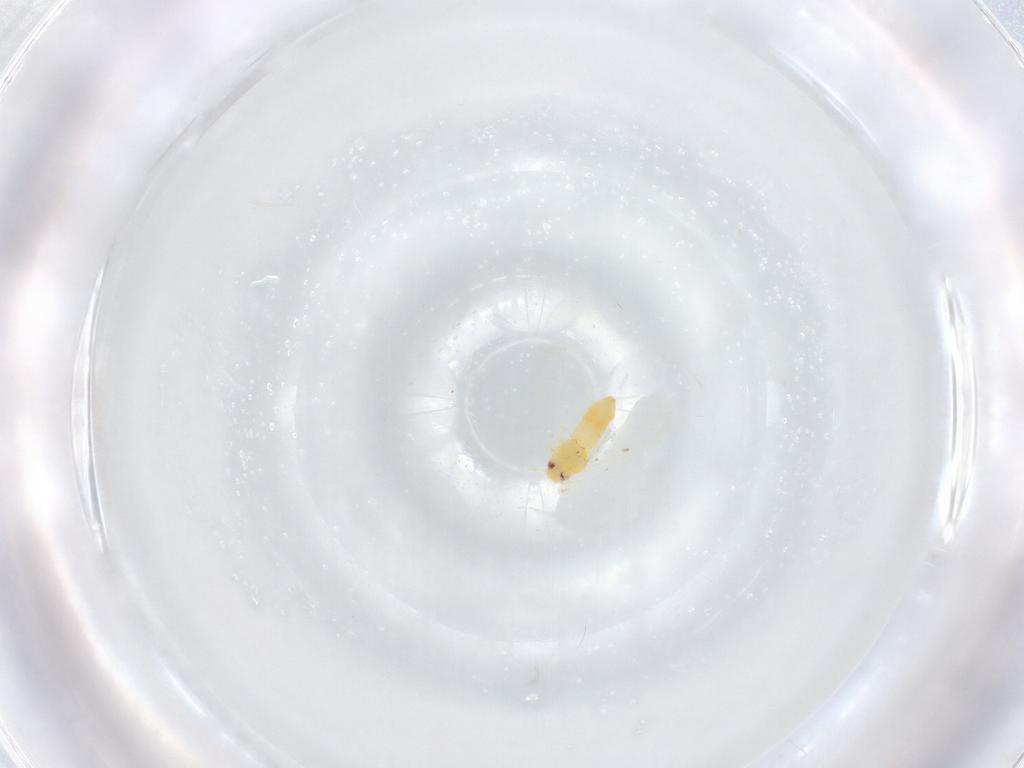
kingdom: Animalia
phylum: Arthropoda
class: Insecta
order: Hemiptera
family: Aleyrodidae
